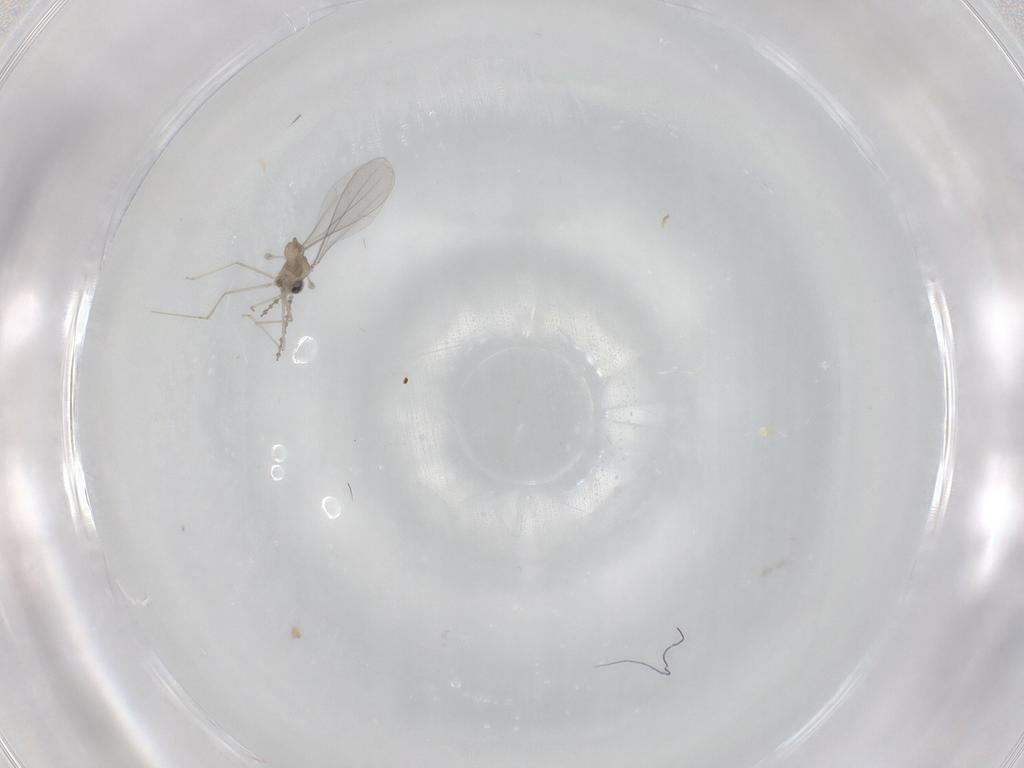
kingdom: Animalia
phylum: Arthropoda
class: Insecta
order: Diptera
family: Cecidomyiidae
